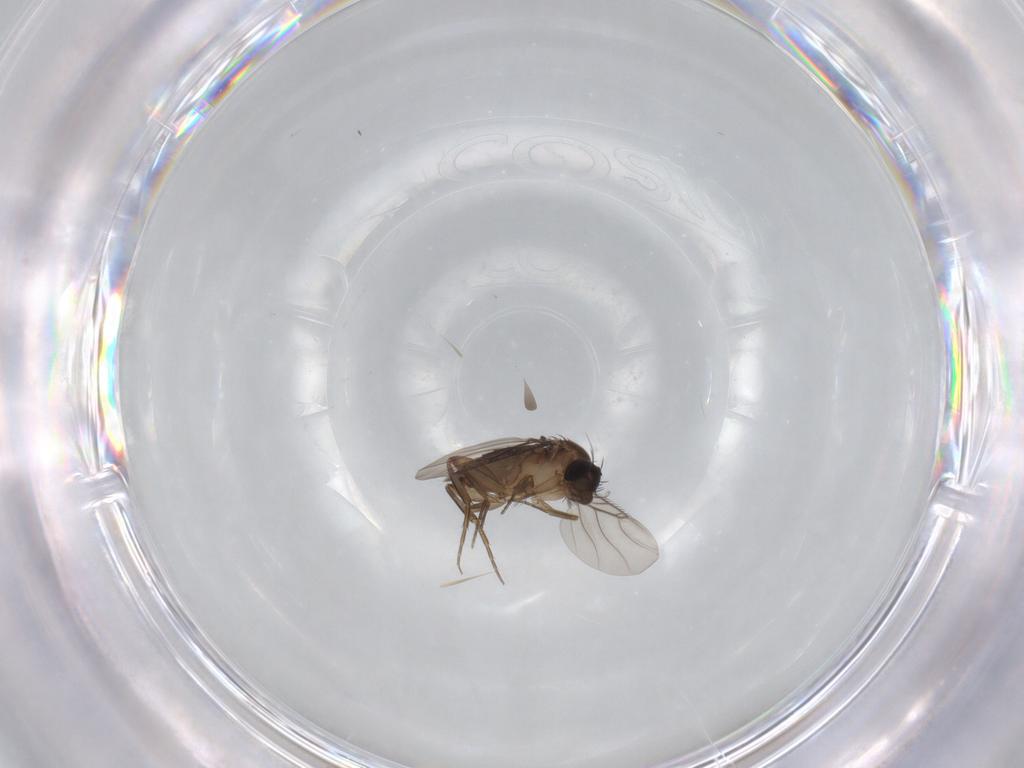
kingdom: Animalia
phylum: Arthropoda
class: Insecta
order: Diptera
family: Phoridae
